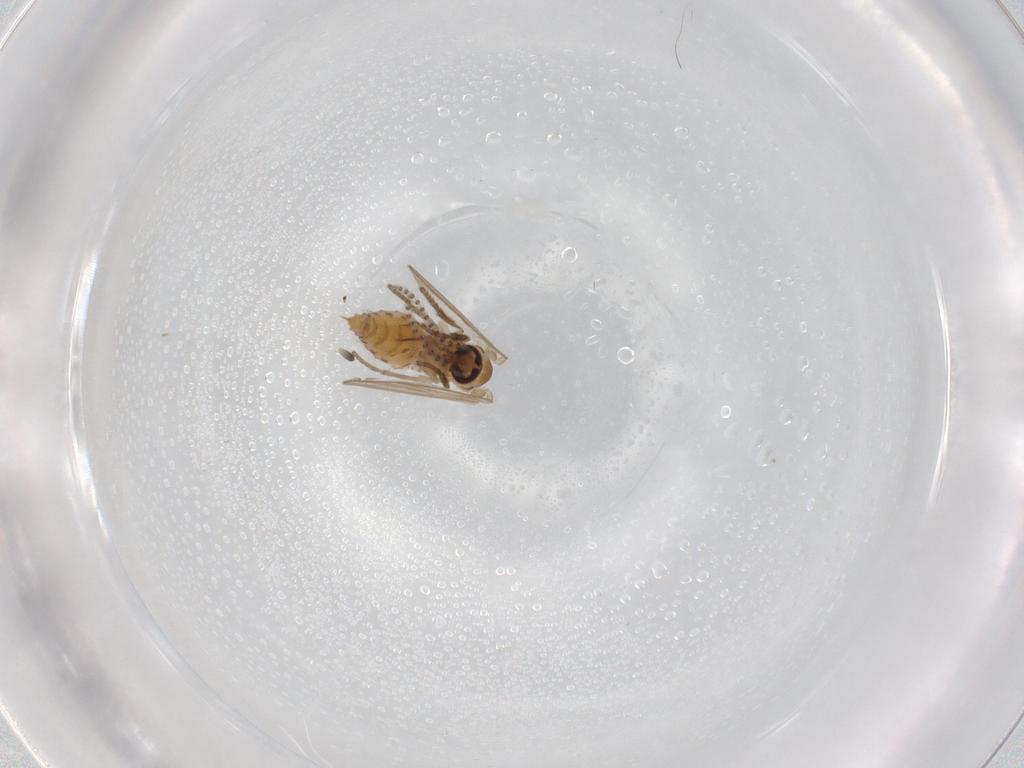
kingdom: Animalia
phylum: Arthropoda
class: Insecta
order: Diptera
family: Psychodidae
